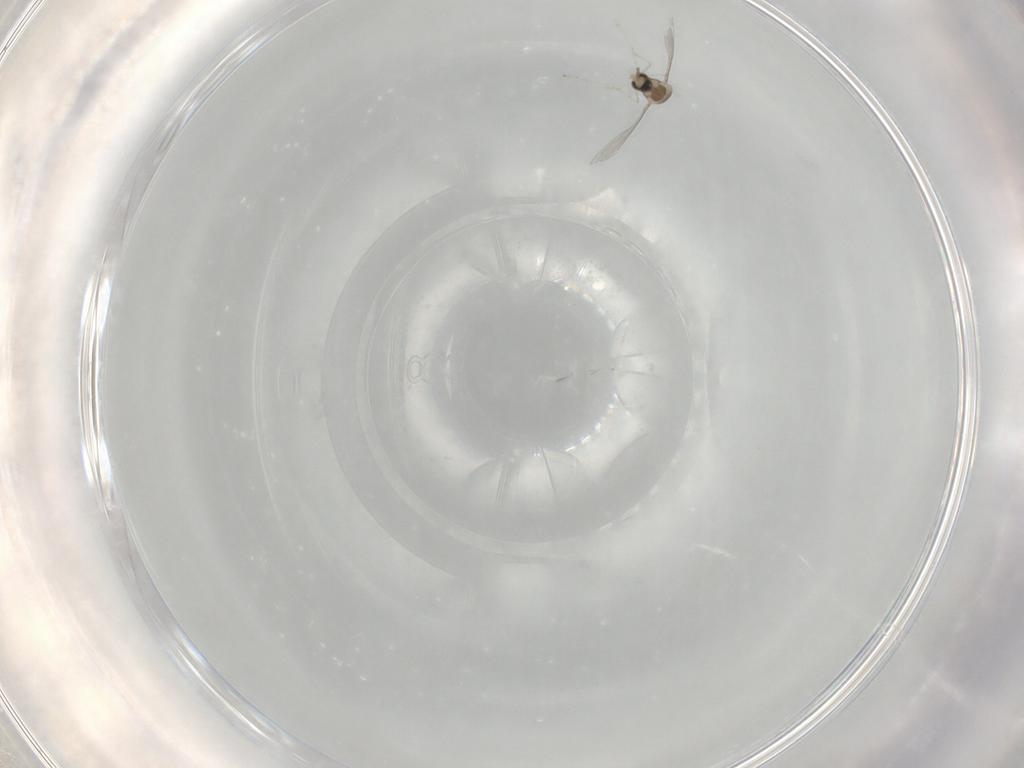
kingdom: Animalia
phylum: Arthropoda
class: Insecta
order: Diptera
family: Cecidomyiidae
